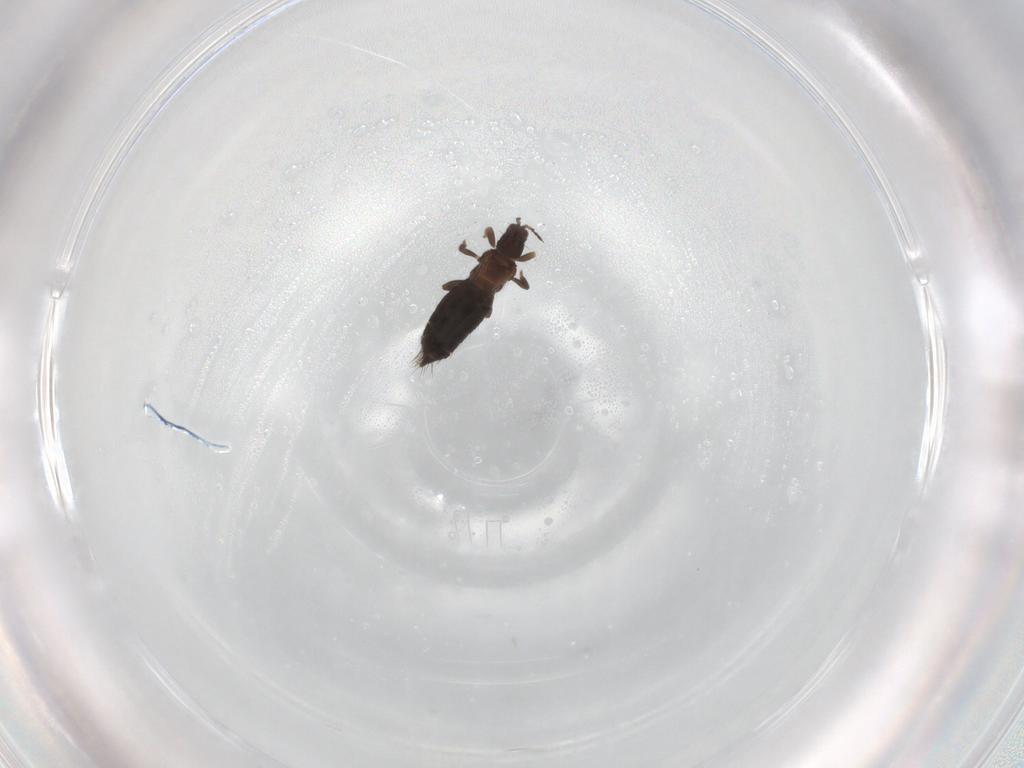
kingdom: Animalia
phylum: Arthropoda
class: Insecta
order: Thysanoptera
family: Thripidae
